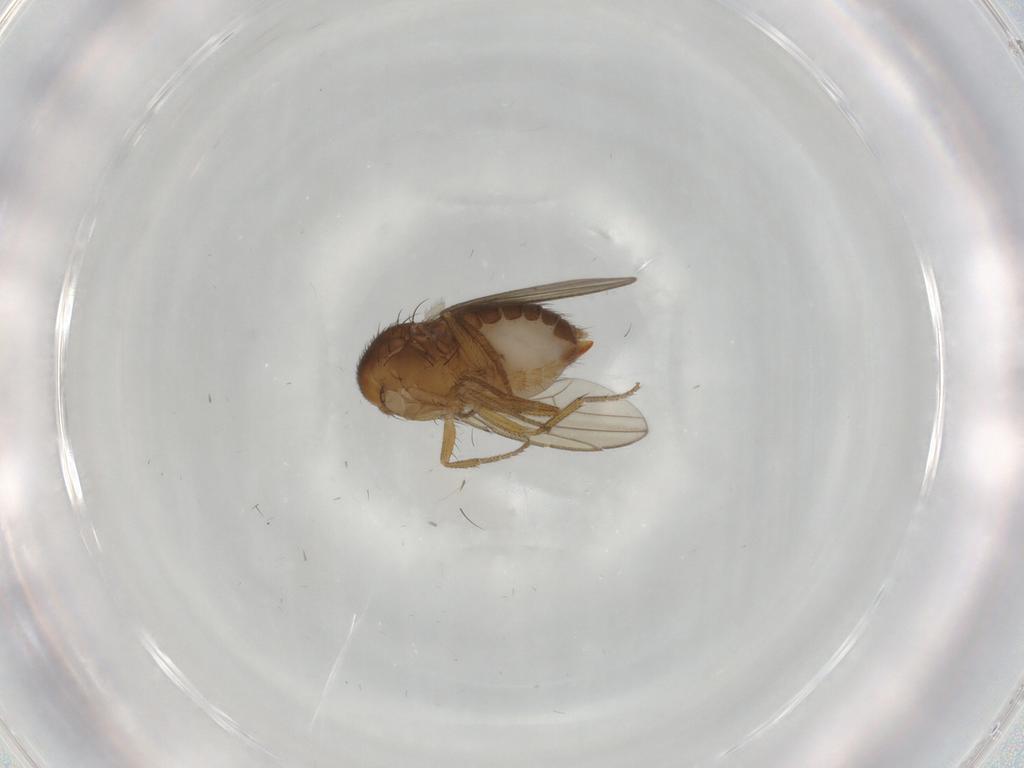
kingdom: Animalia
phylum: Arthropoda
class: Insecta
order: Diptera
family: Drosophilidae
